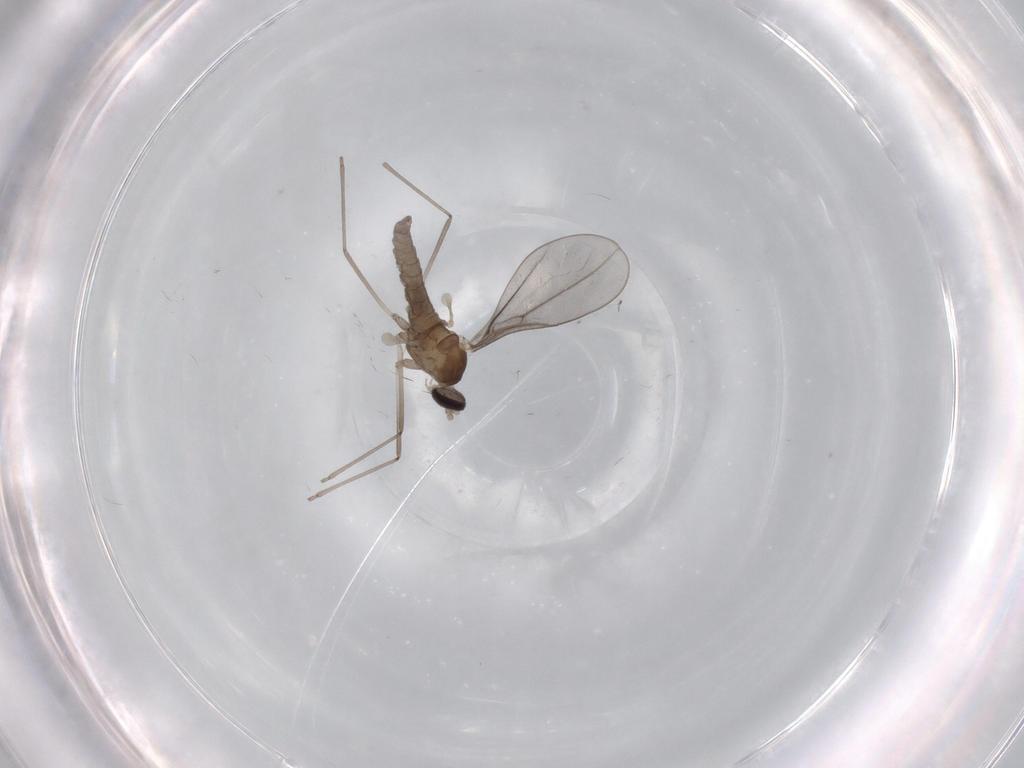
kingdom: Animalia
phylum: Arthropoda
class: Insecta
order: Diptera
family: Cecidomyiidae
